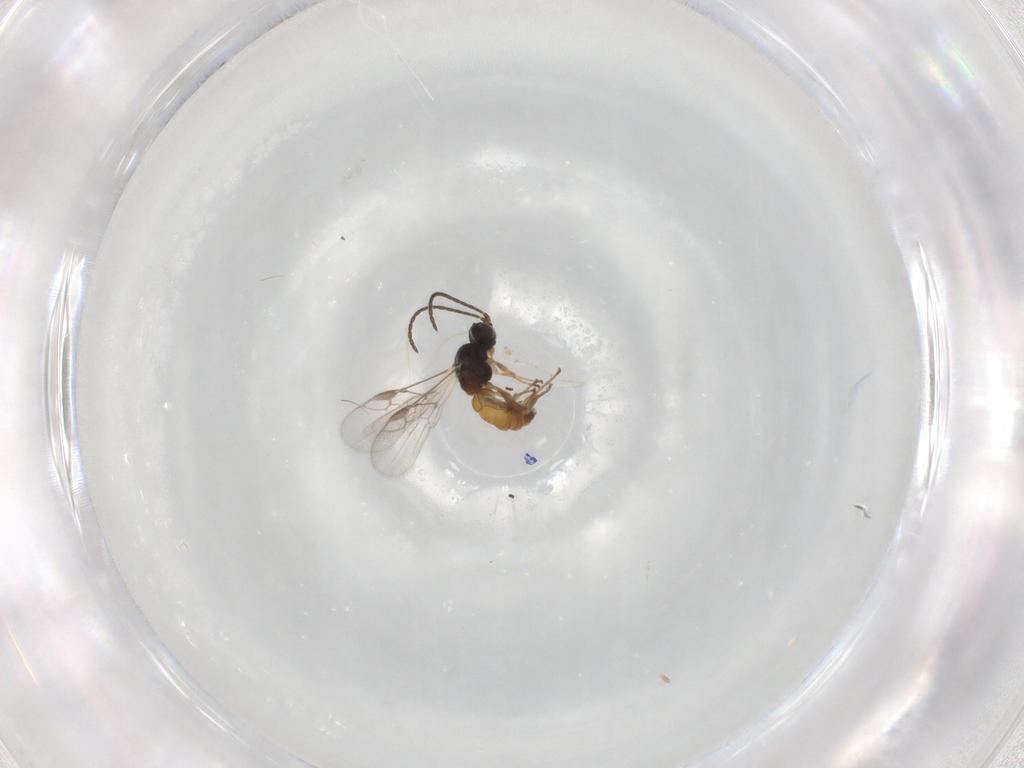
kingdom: Animalia
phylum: Arthropoda
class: Insecta
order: Hymenoptera
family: Braconidae
